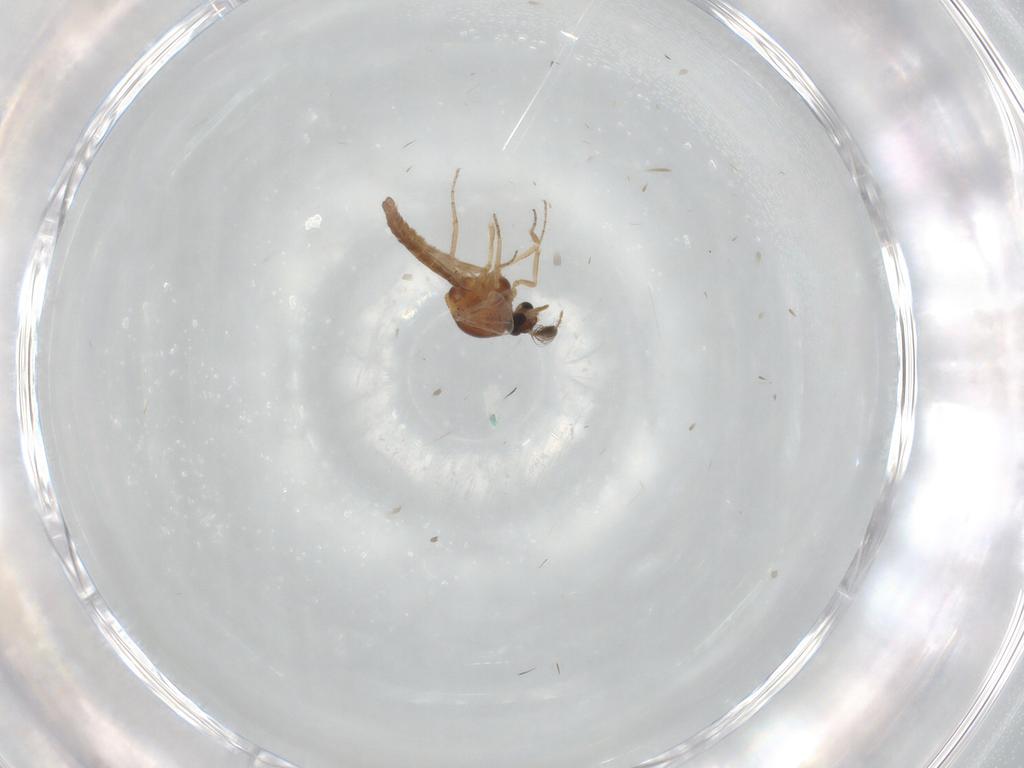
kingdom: Animalia
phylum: Arthropoda
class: Insecta
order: Diptera
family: Ceratopogonidae
